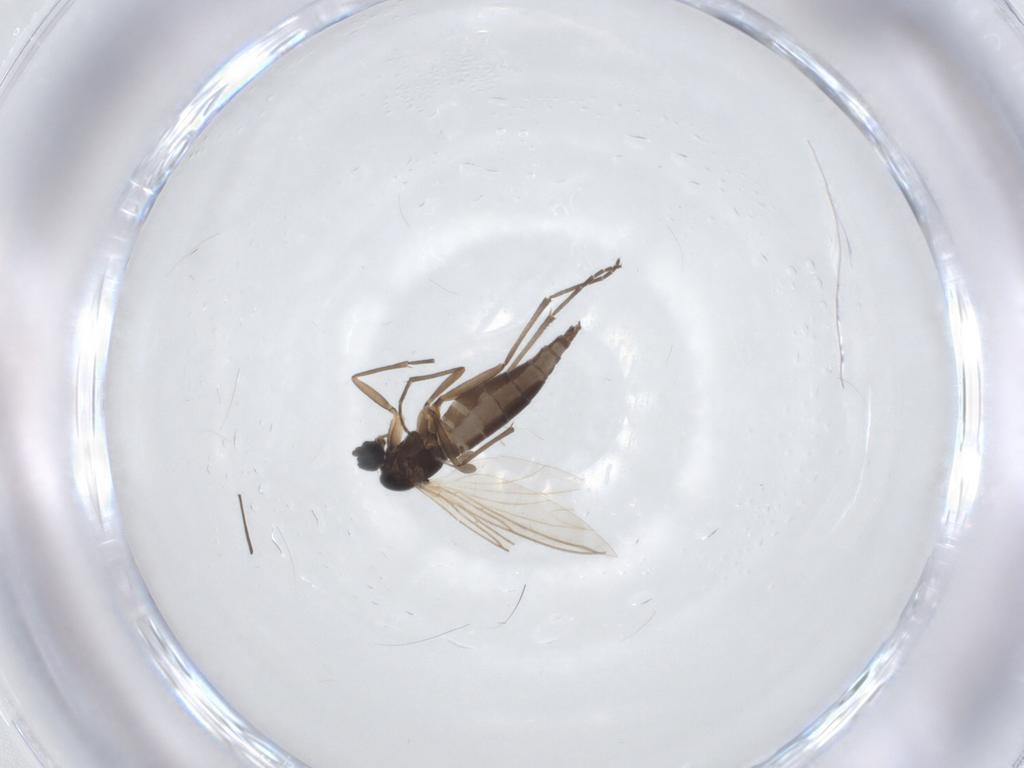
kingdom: Animalia
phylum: Arthropoda
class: Insecta
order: Diptera
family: Sciaridae
